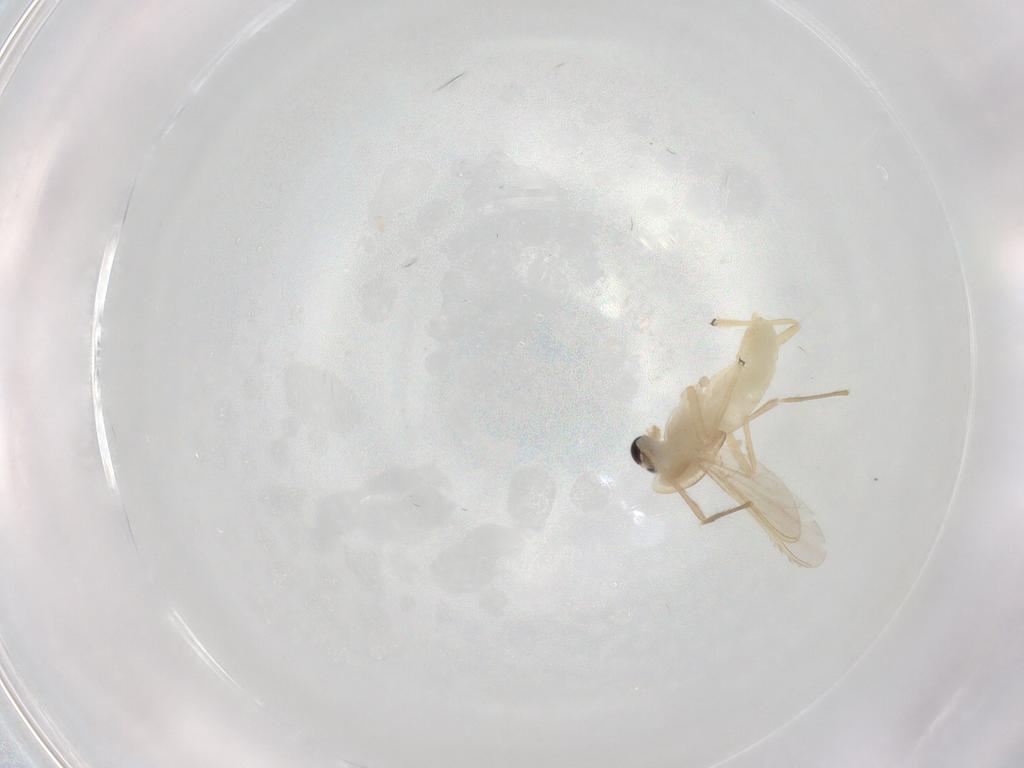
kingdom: Animalia
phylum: Arthropoda
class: Insecta
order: Diptera
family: Chironomidae
